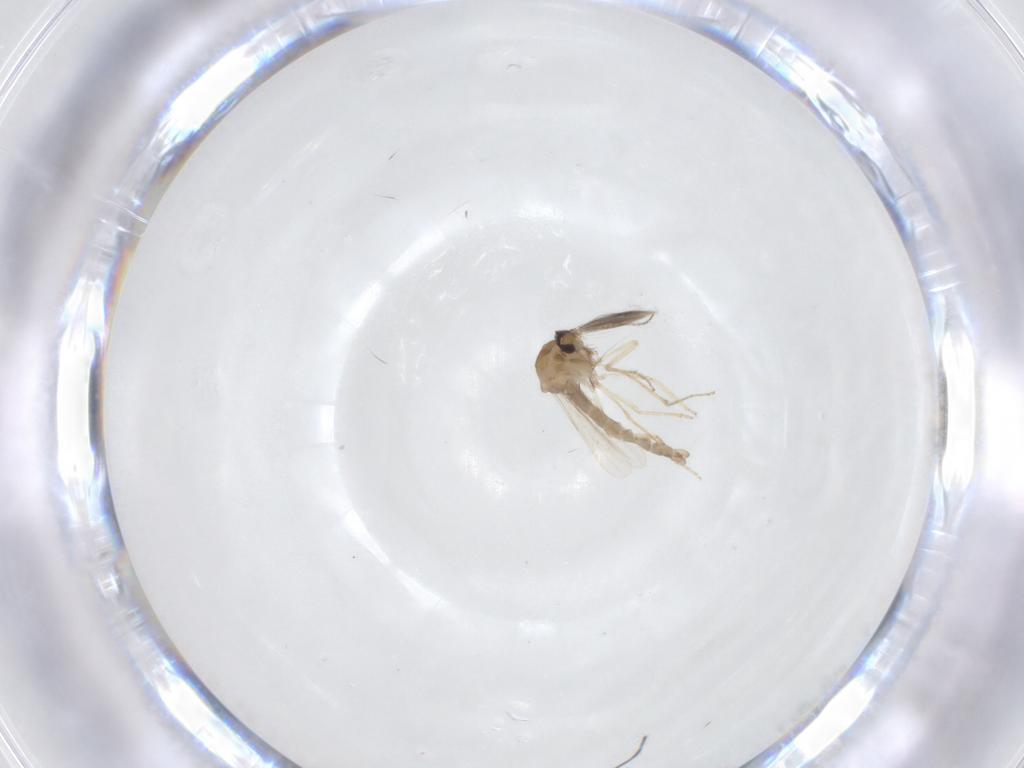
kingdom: Animalia
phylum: Arthropoda
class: Insecta
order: Diptera
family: Ceratopogonidae
